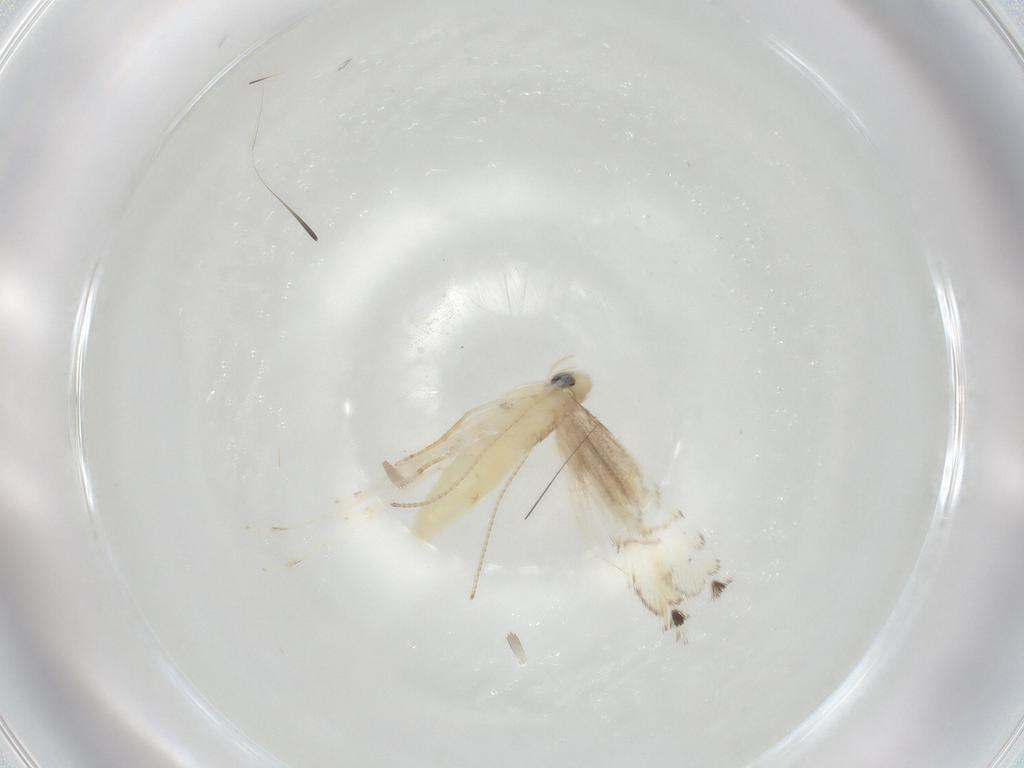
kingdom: Animalia
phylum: Arthropoda
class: Insecta
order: Lepidoptera
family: Gracillariidae
